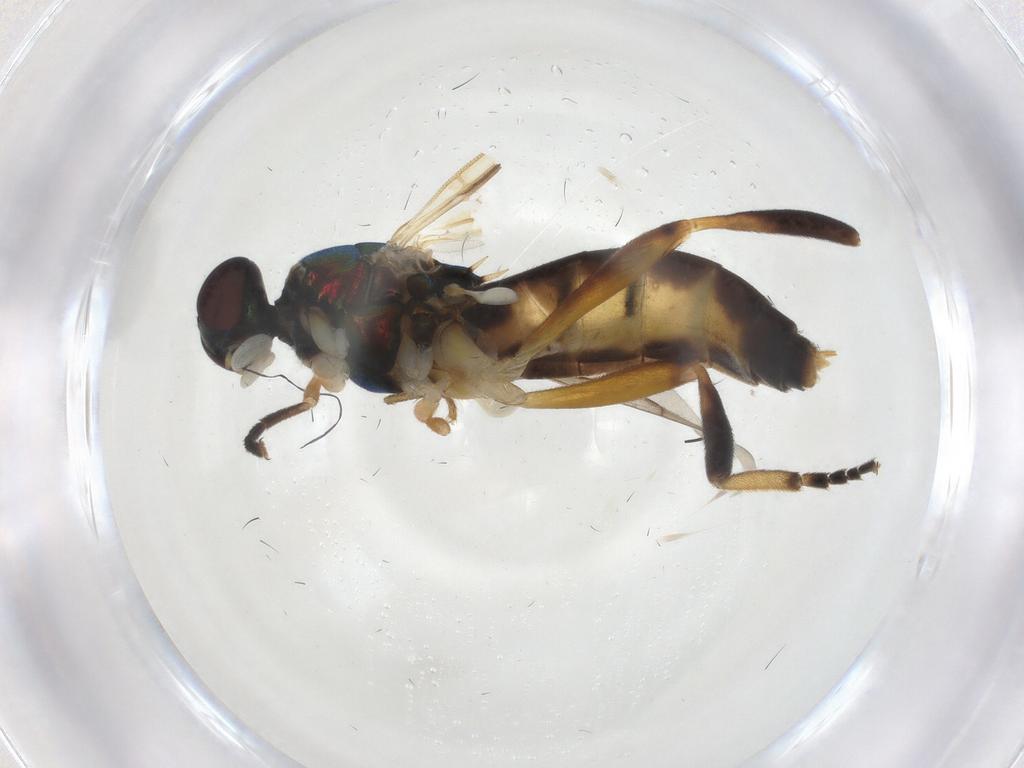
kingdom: Animalia
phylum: Arthropoda
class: Insecta
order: Diptera
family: Stratiomyidae
